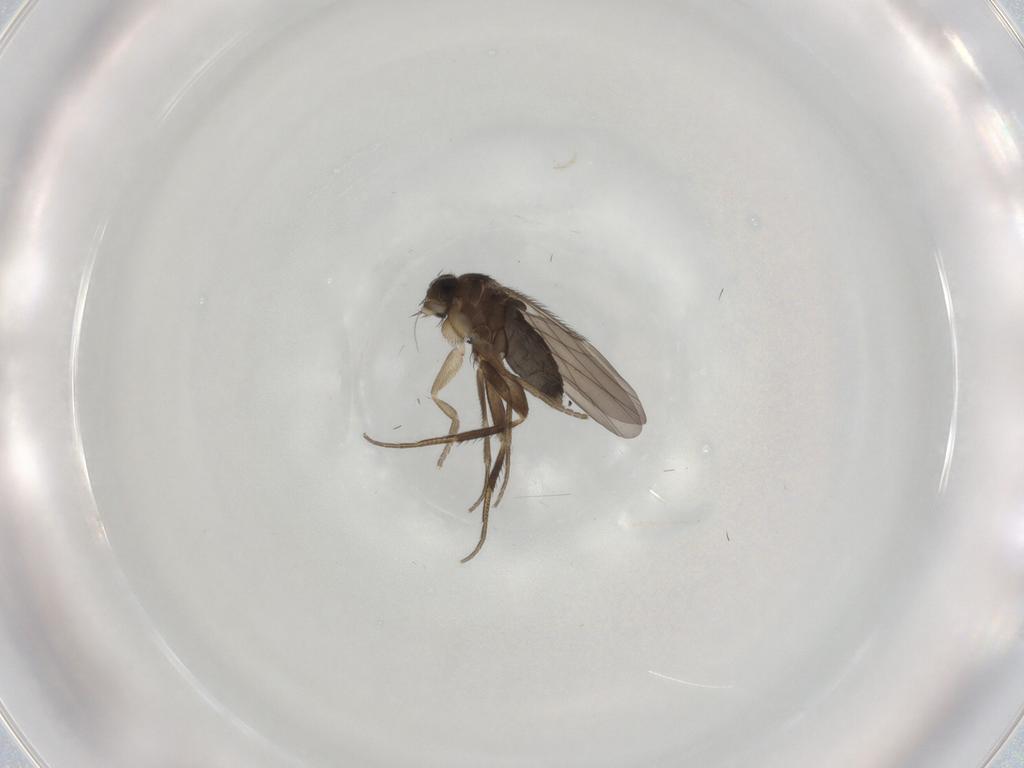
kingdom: Animalia
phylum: Arthropoda
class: Insecta
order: Diptera
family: Phoridae
